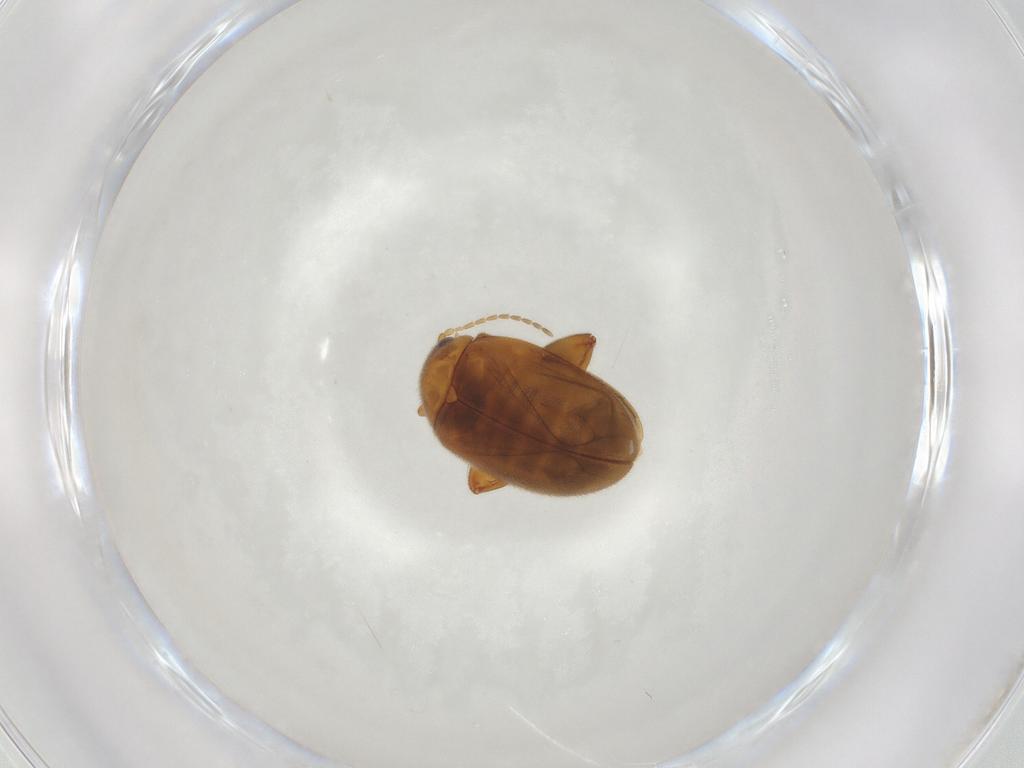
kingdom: Animalia
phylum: Arthropoda
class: Insecta
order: Coleoptera
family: Scirtidae
